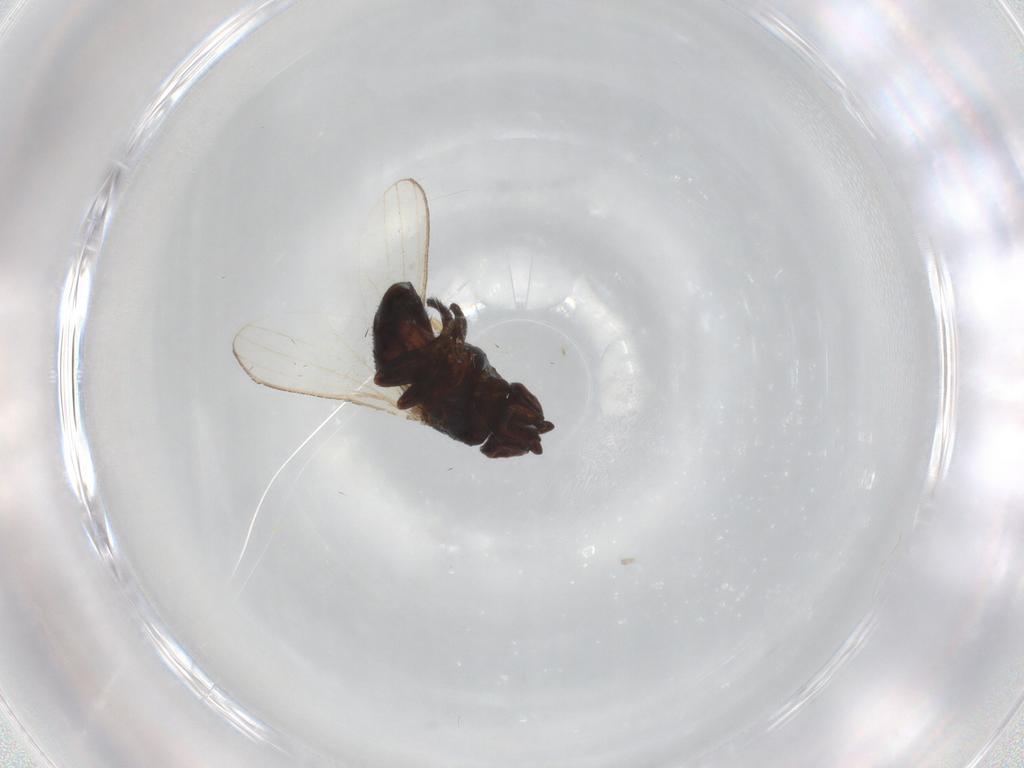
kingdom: Animalia
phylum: Arthropoda
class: Insecta
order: Diptera
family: Milichiidae
